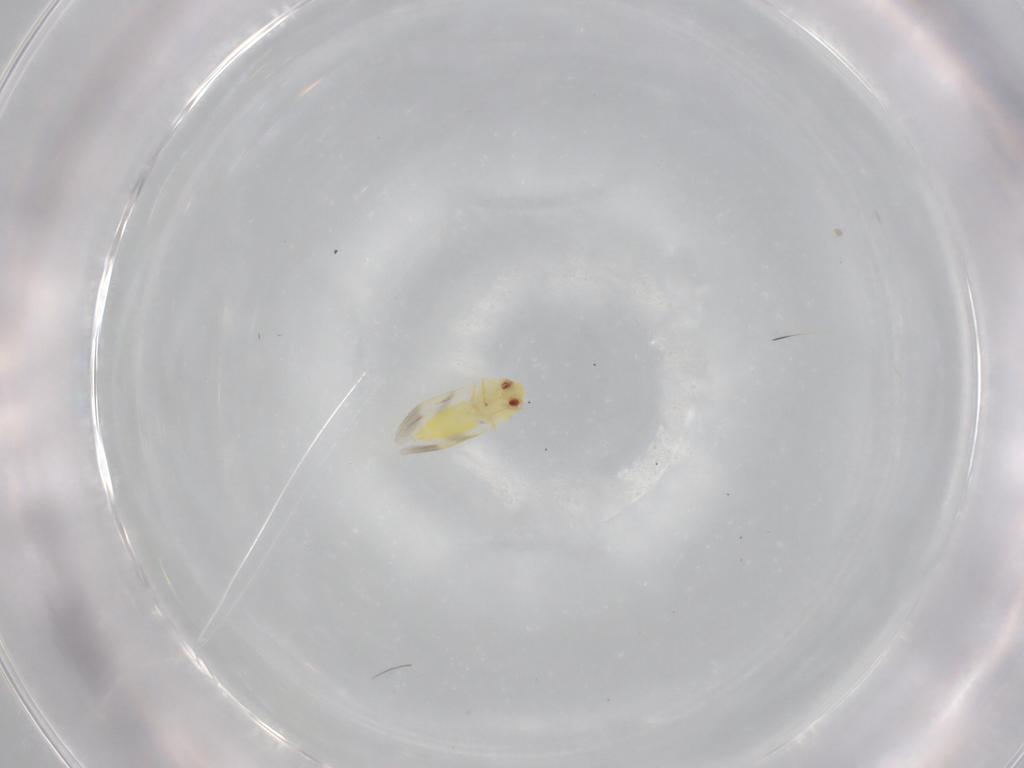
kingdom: Animalia
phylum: Arthropoda
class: Insecta
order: Hemiptera
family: Aleyrodidae
